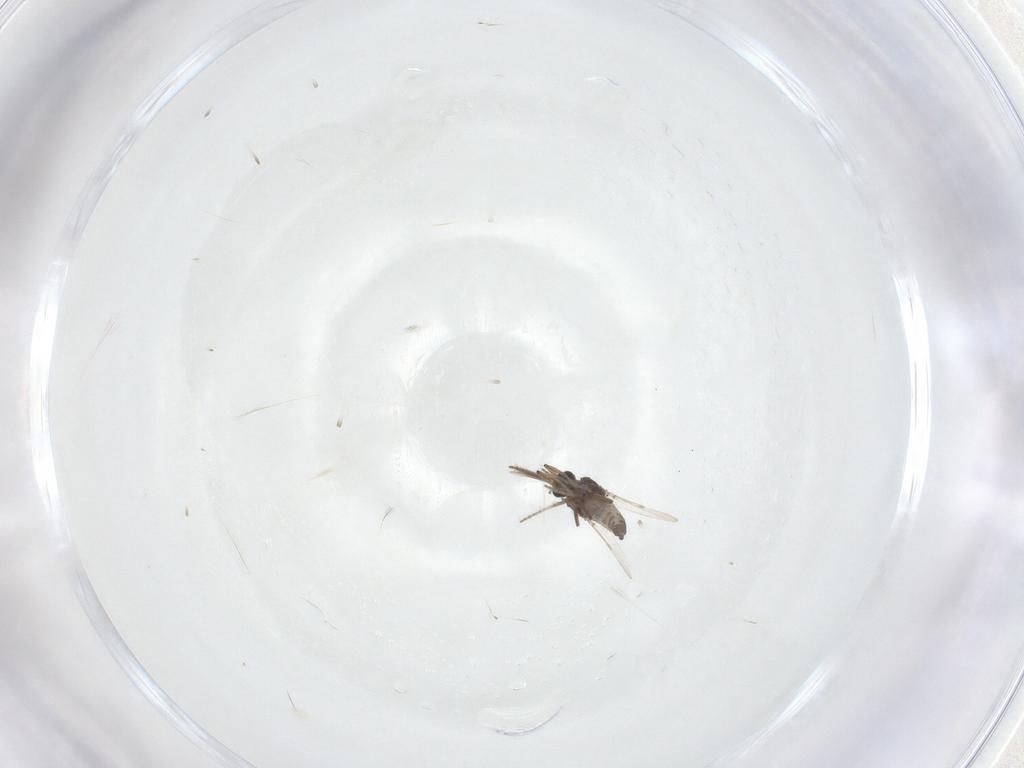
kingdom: Animalia
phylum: Arthropoda
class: Insecta
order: Diptera
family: Ceratopogonidae
